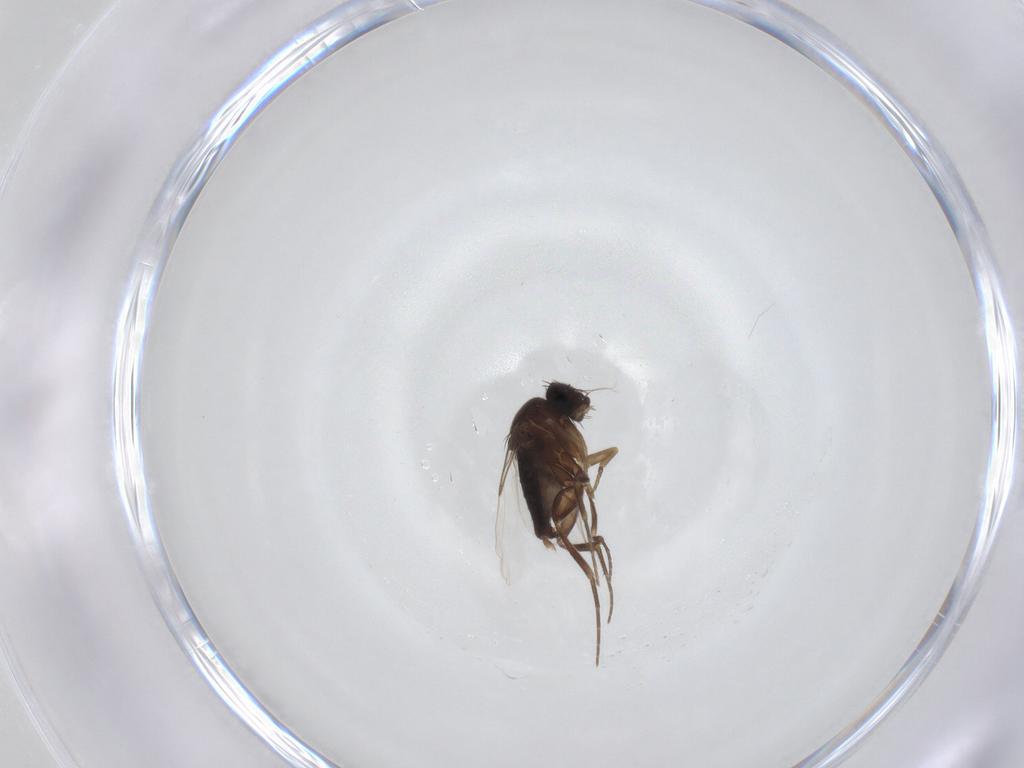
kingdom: Animalia
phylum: Arthropoda
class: Insecta
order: Diptera
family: Phoridae
